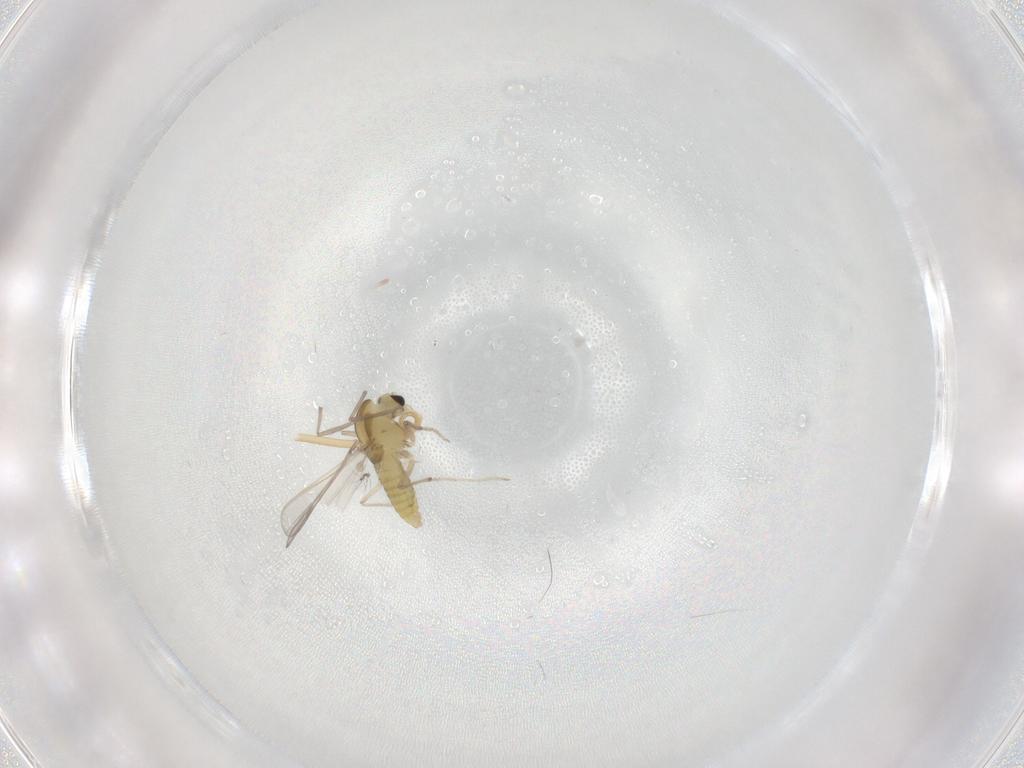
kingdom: Animalia
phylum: Arthropoda
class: Insecta
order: Diptera
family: Chironomidae
